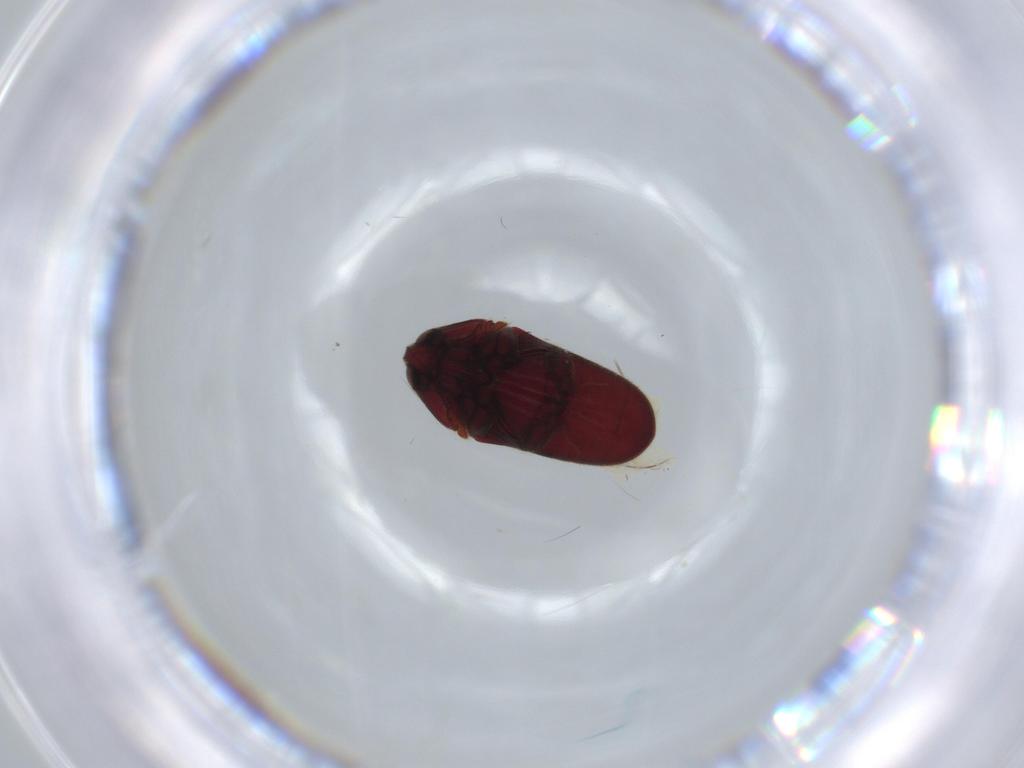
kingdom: Animalia
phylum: Arthropoda
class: Insecta
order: Coleoptera
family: Throscidae
